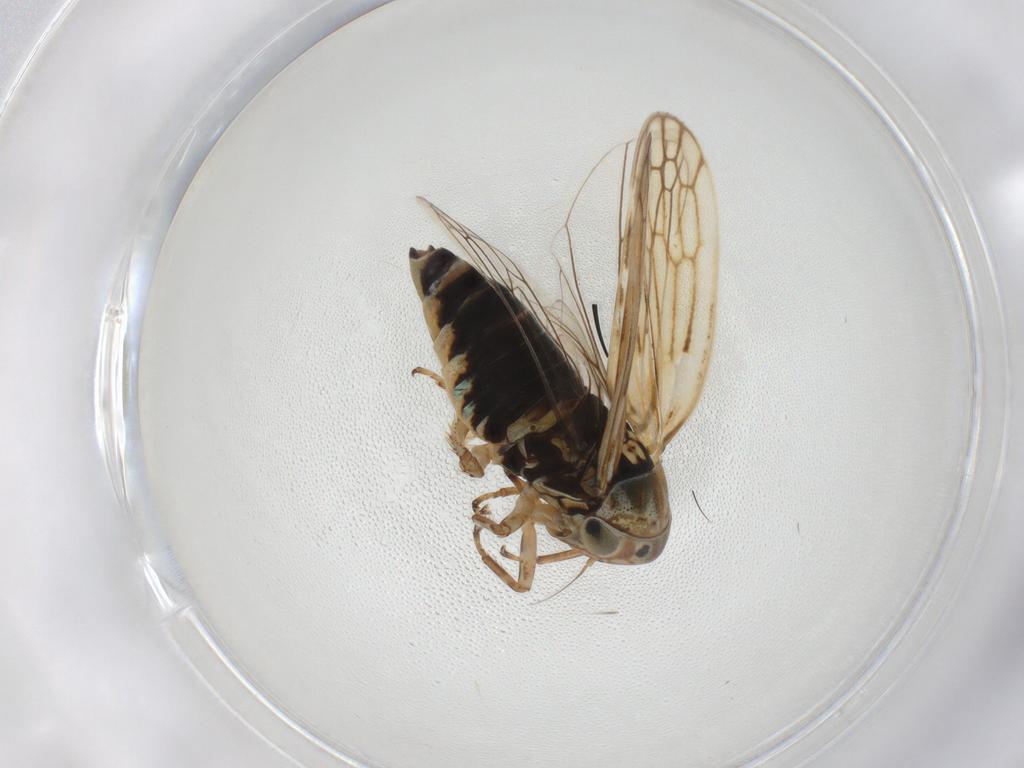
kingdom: Animalia
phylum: Arthropoda
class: Insecta
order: Hemiptera
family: Cicadellidae
